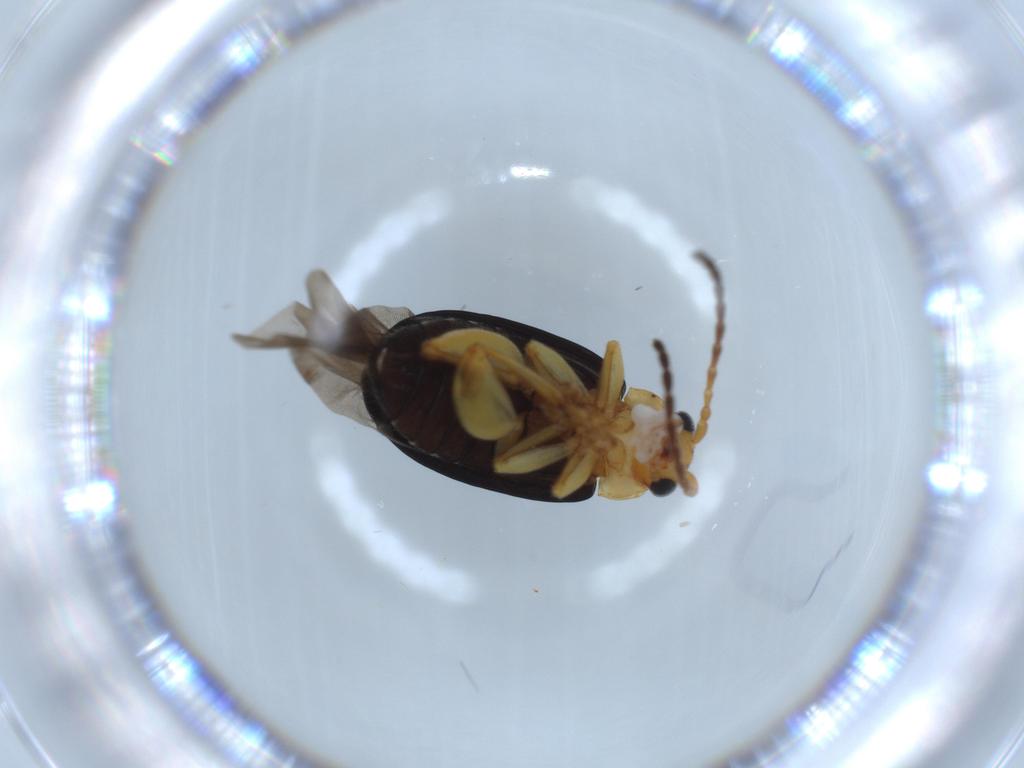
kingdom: Animalia
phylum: Arthropoda
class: Insecta
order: Coleoptera
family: Chrysomelidae
